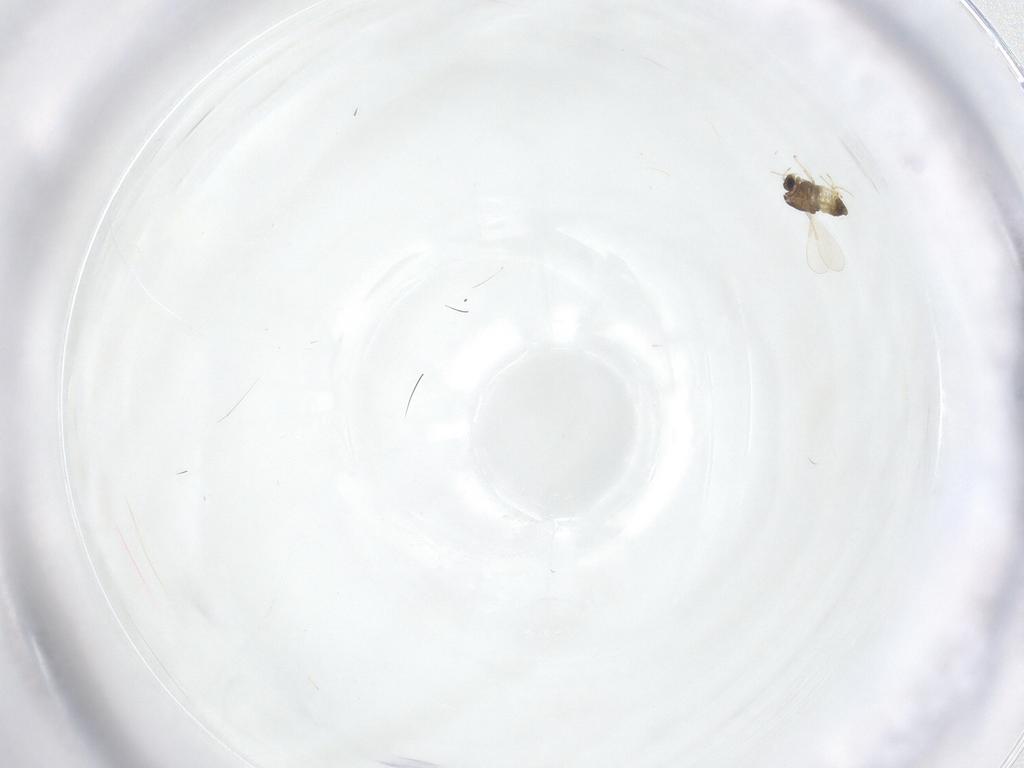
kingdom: Animalia
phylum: Arthropoda
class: Insecta
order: Diptera
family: Chironomidae
